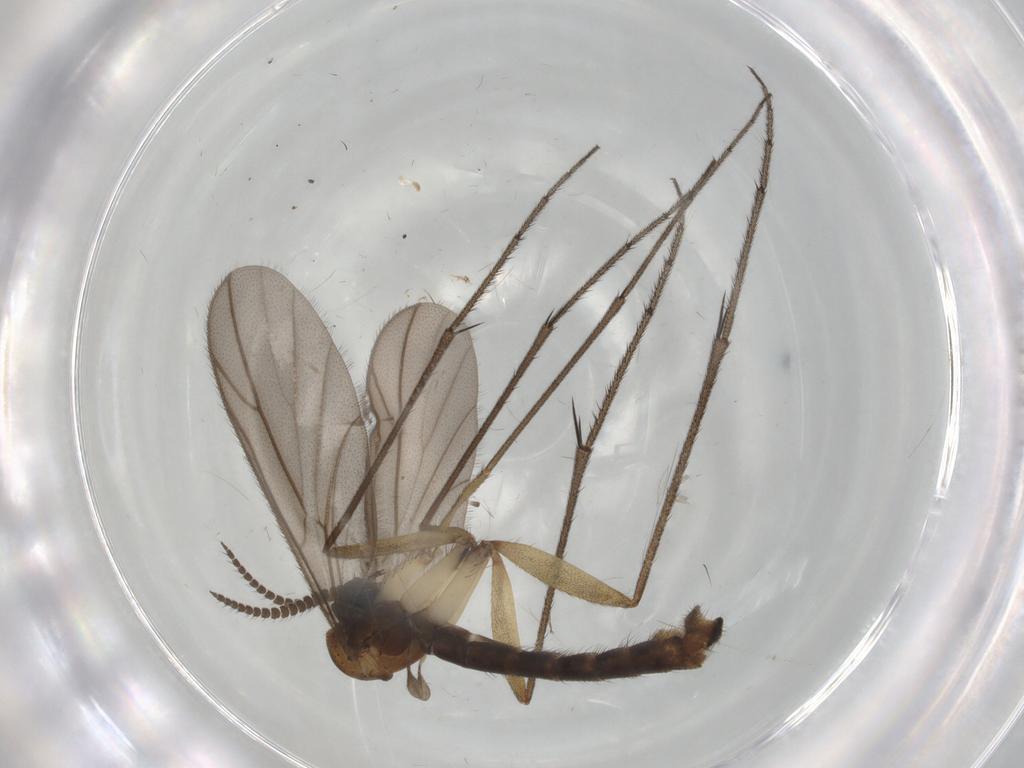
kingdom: Animalia
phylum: Arthropoda
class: Insecta
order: Diptera
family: Ditomyiidae
